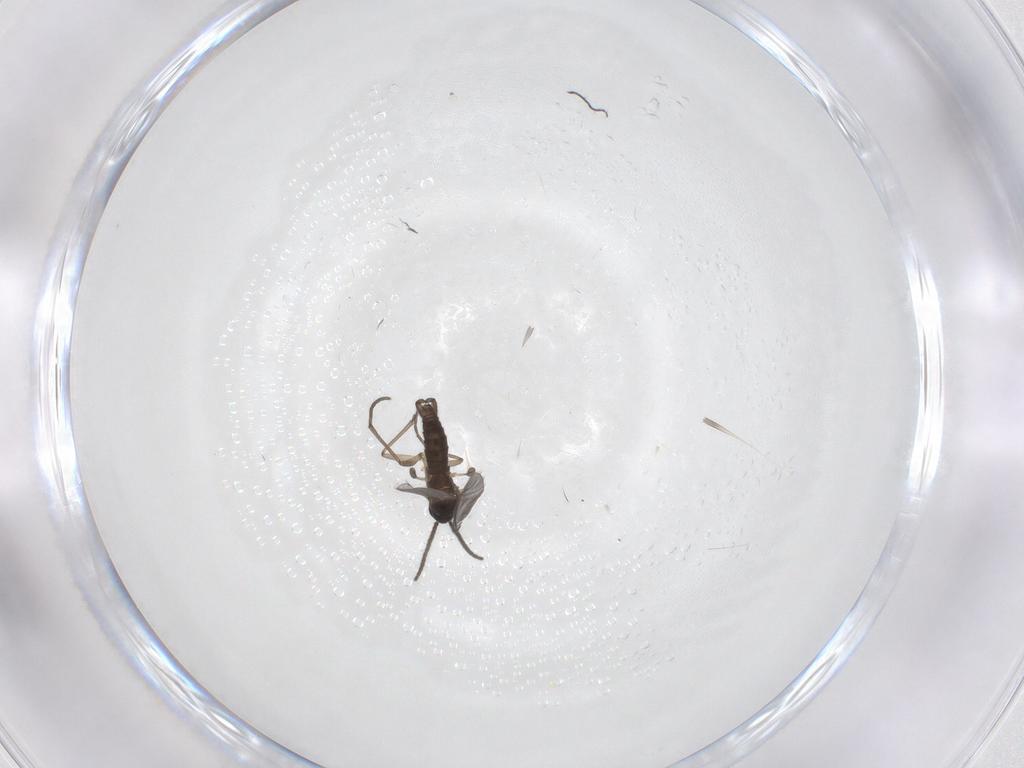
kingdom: Animalia
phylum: Arthropoda
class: Insecta
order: Diptera
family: Sciaridae
